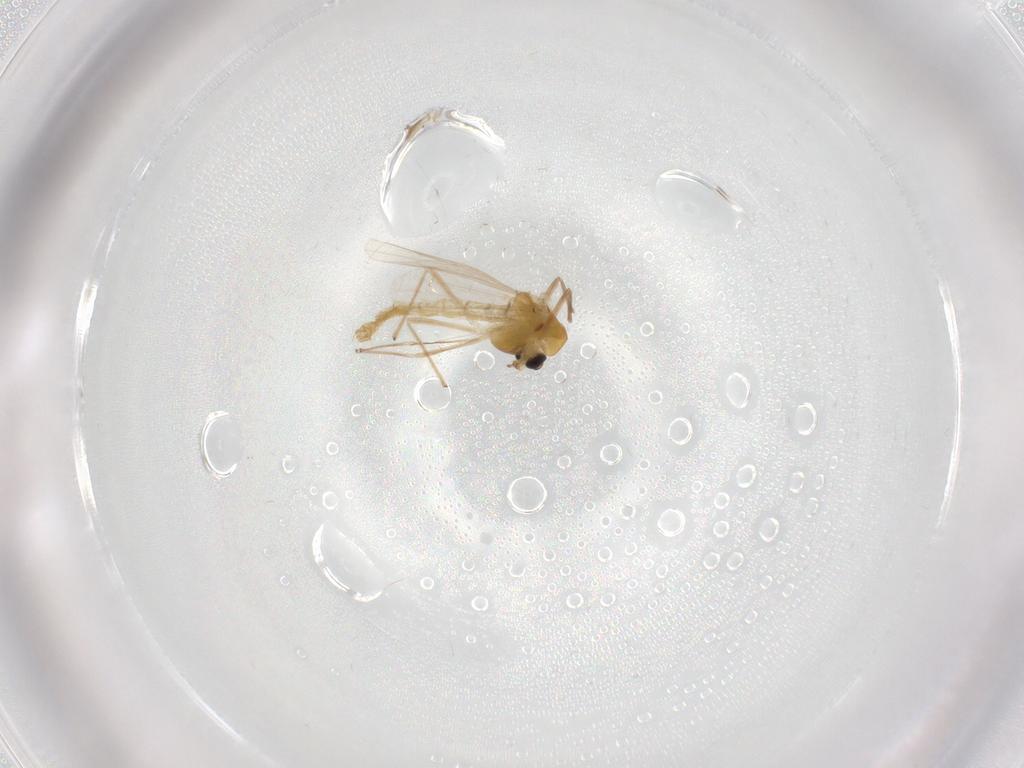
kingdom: Animalia
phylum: Arthropoda
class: Insecta
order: Diptera
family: Chironomidae
